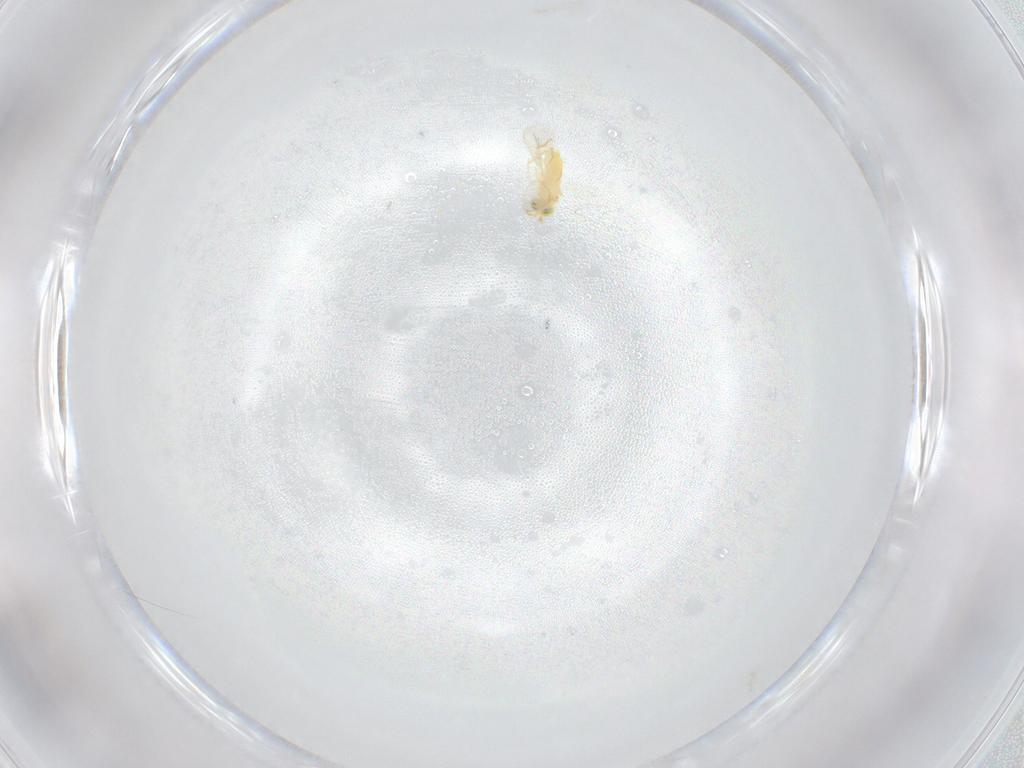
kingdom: Animalia
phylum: Arthropoda
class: Insecta
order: Hymenoptera
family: Aphelinidae
